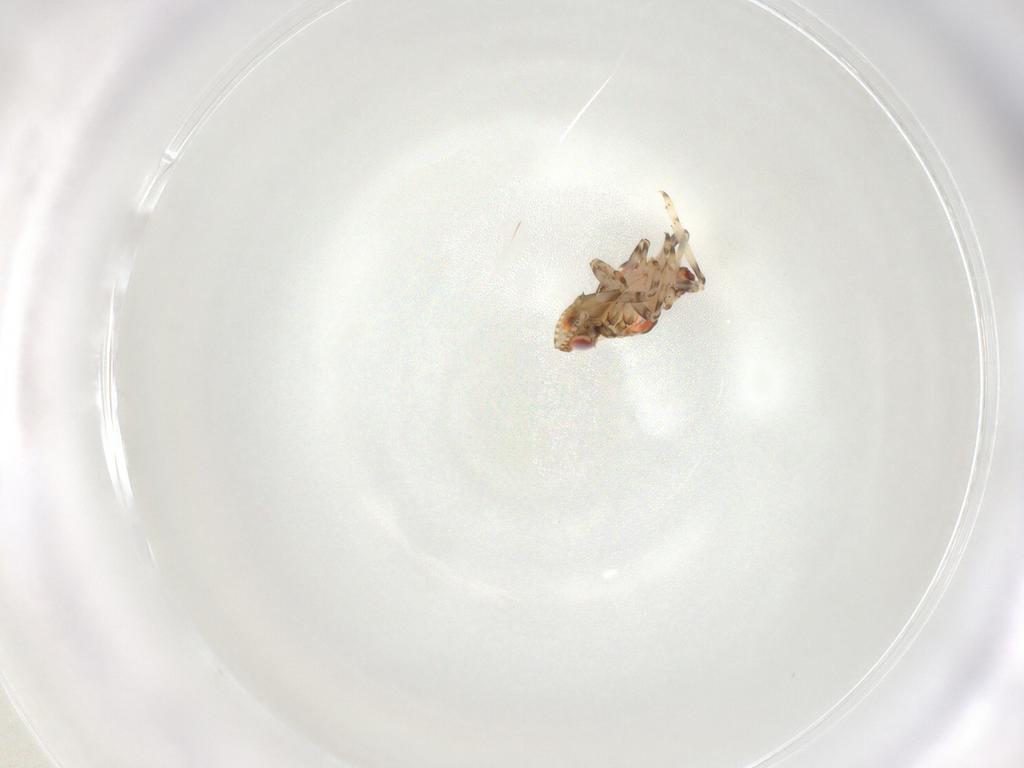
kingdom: Animalia
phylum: Arthropoda
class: Insecta
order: Hemiptera
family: Tropiduchidae
